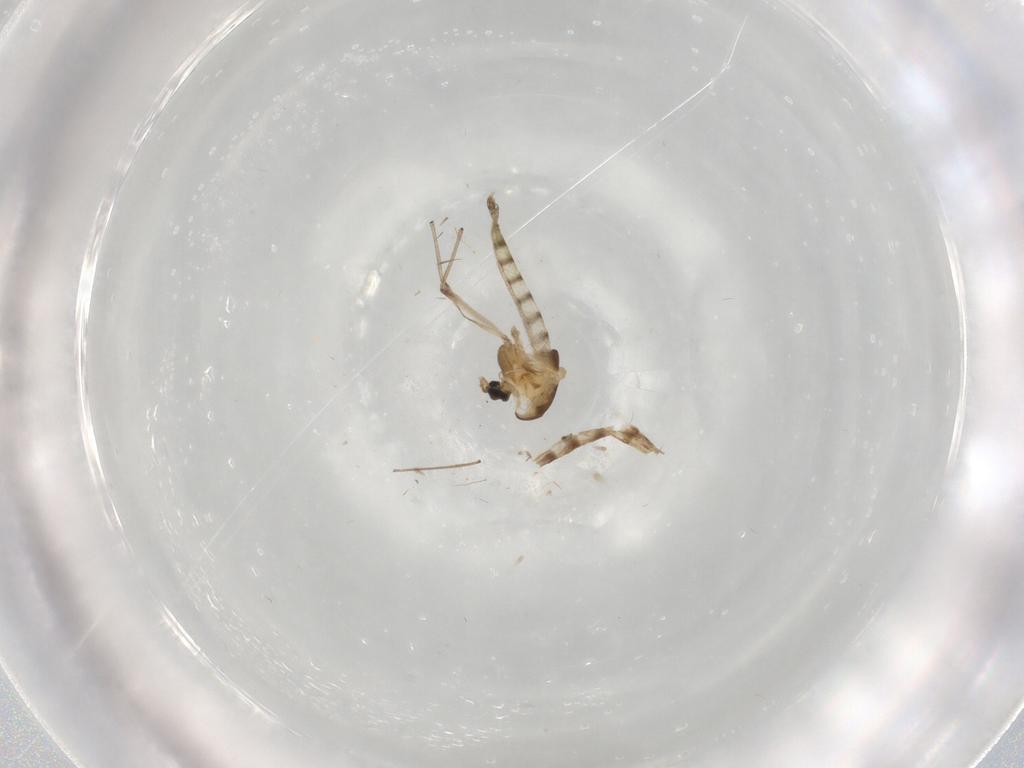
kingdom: Animalia
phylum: Arthropoda
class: Insecta
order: Diptera
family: Chironomidae
